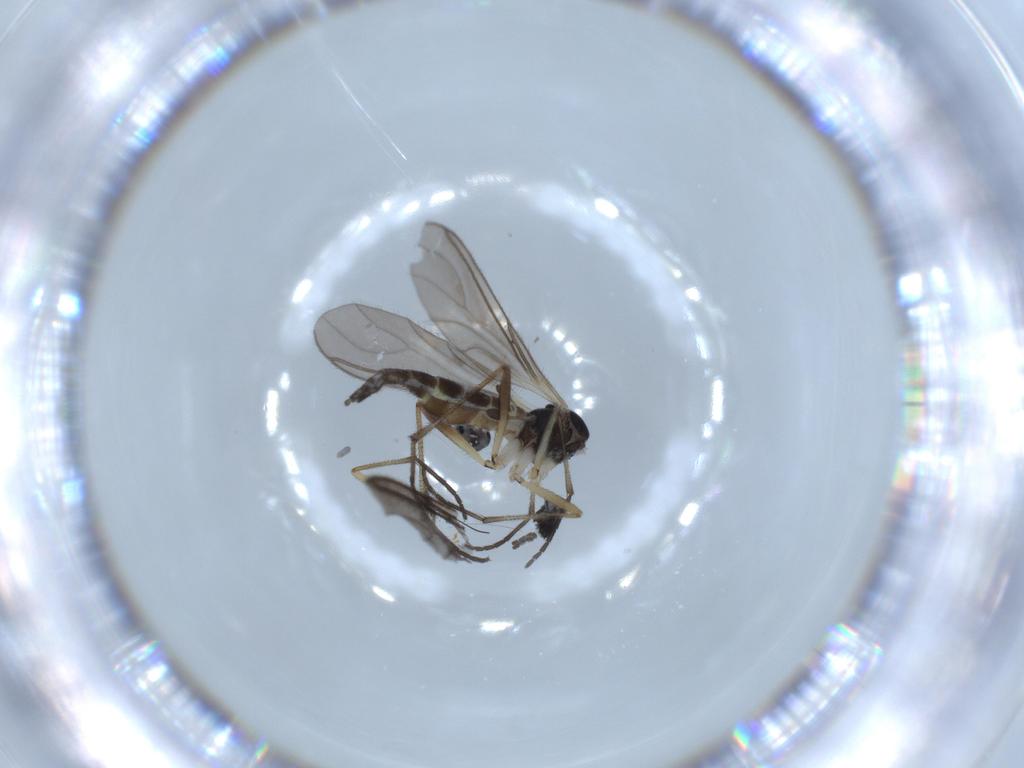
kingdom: Animalia
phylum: Arthropoda
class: Insecta
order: Diptera
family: Sciaridae
